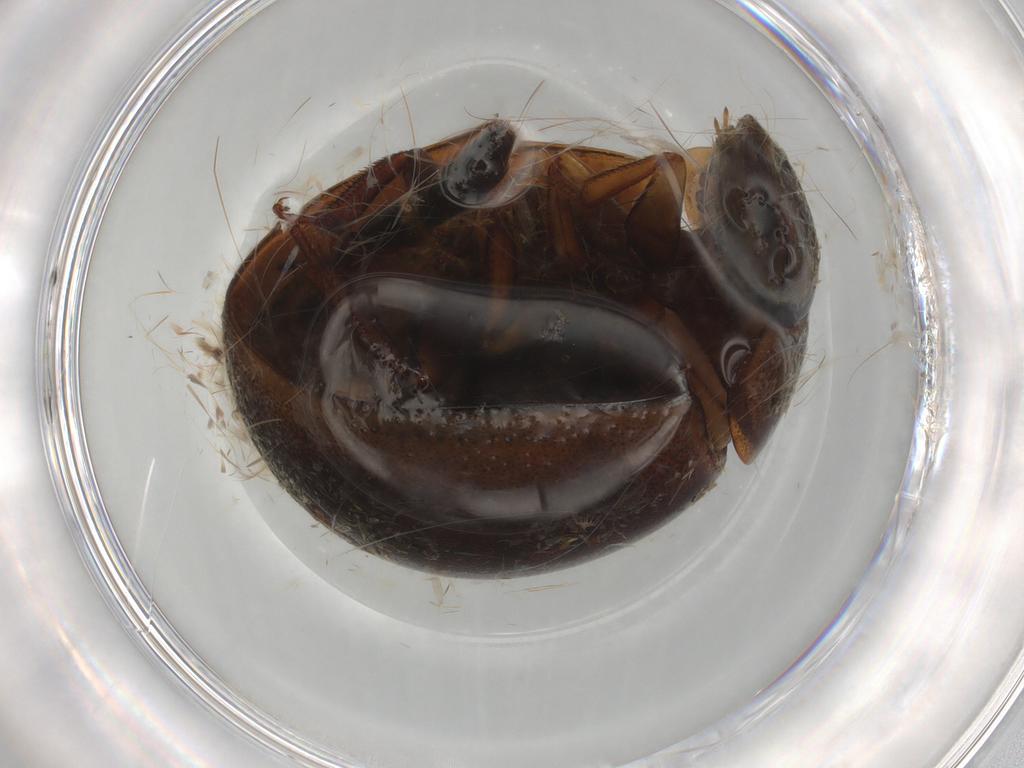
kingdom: Animalia
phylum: Arthropoda
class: Insecta
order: Coleoptera
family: Hydrophilidae
